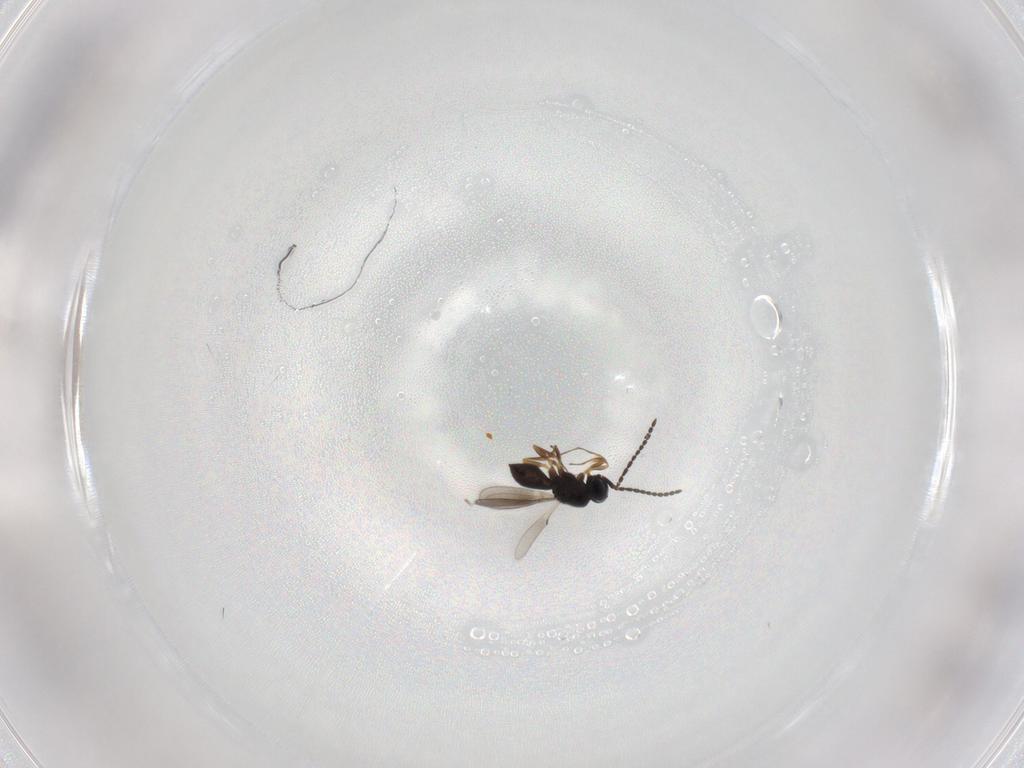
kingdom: Animalia
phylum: Arthropoda
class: Insecta
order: Hymenoptera
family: Scelionidae
